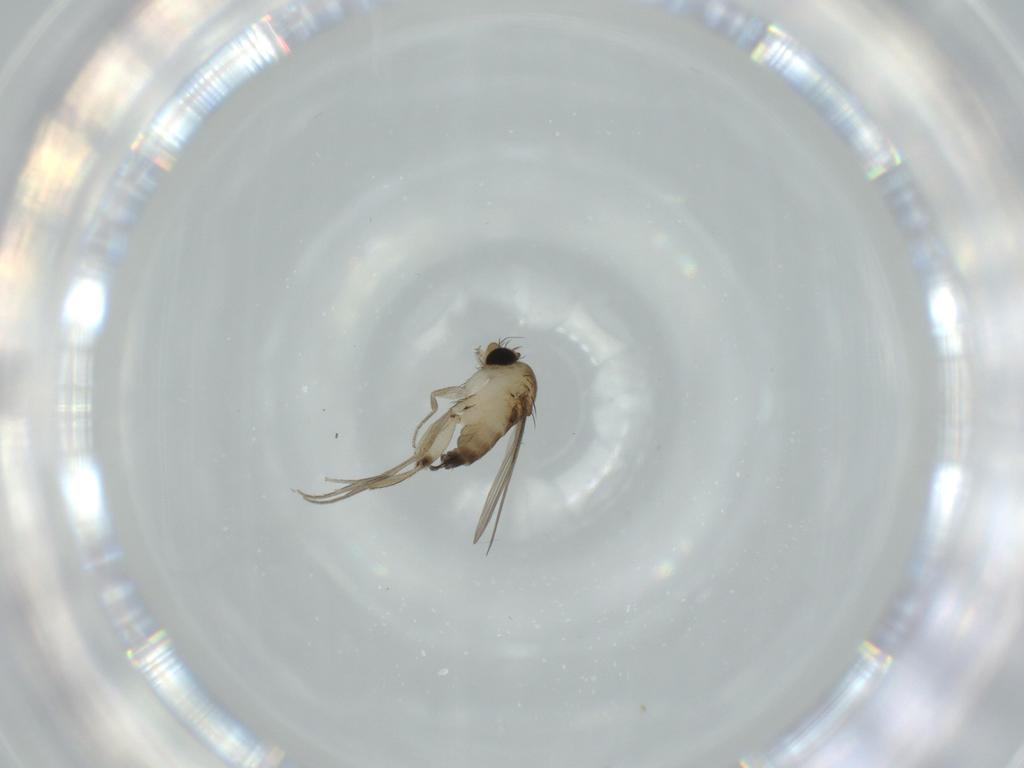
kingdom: Animalia
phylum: Arthropoda
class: Insecta
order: Diptera
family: Phoridae
